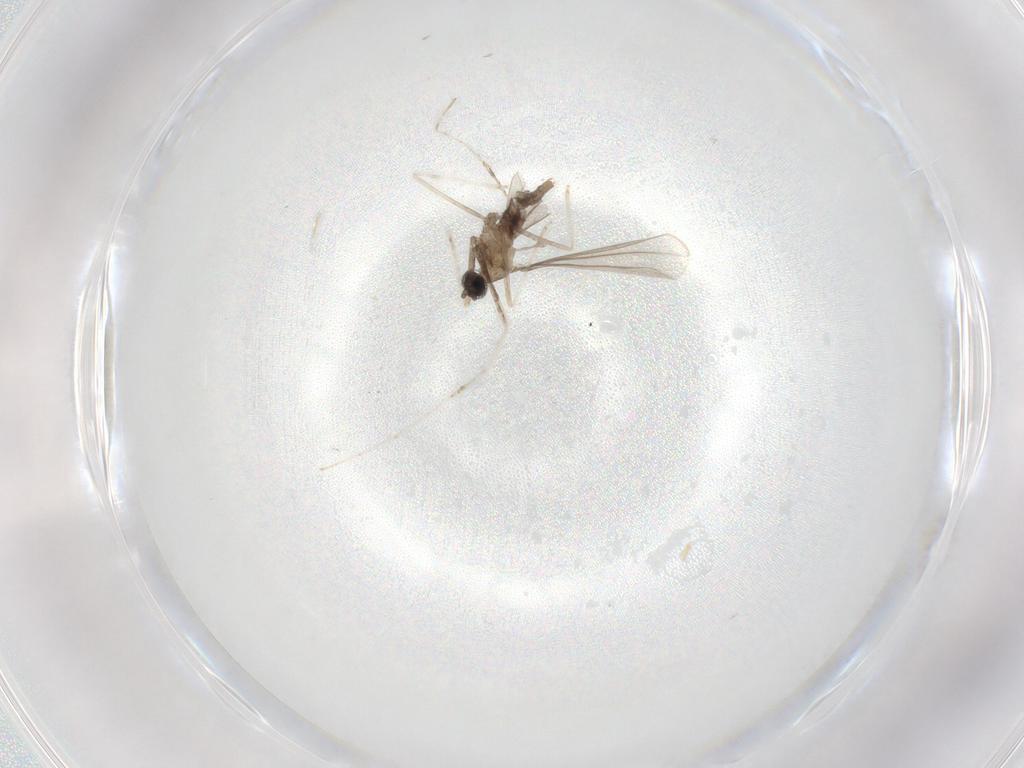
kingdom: Animalia
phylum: Arthropoda
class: Insecta
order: Diptera
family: Cecidomyiidae
